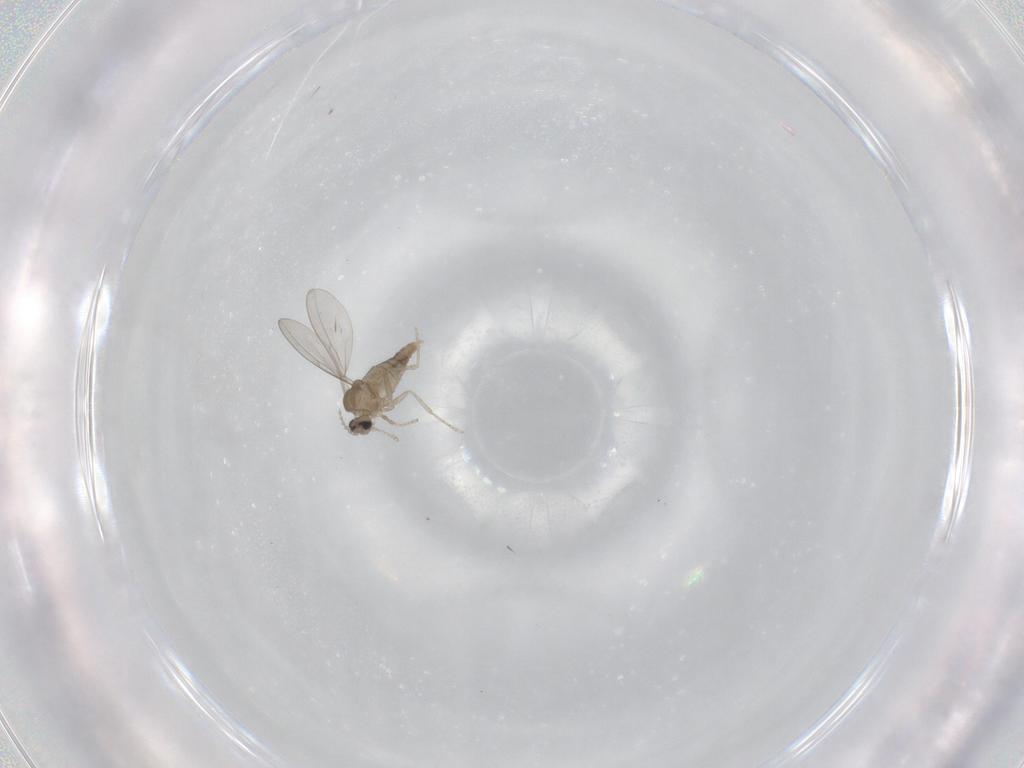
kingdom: Animalia
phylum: Arthropoda
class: Insecta
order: Diptera
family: Cecidomyiidae
